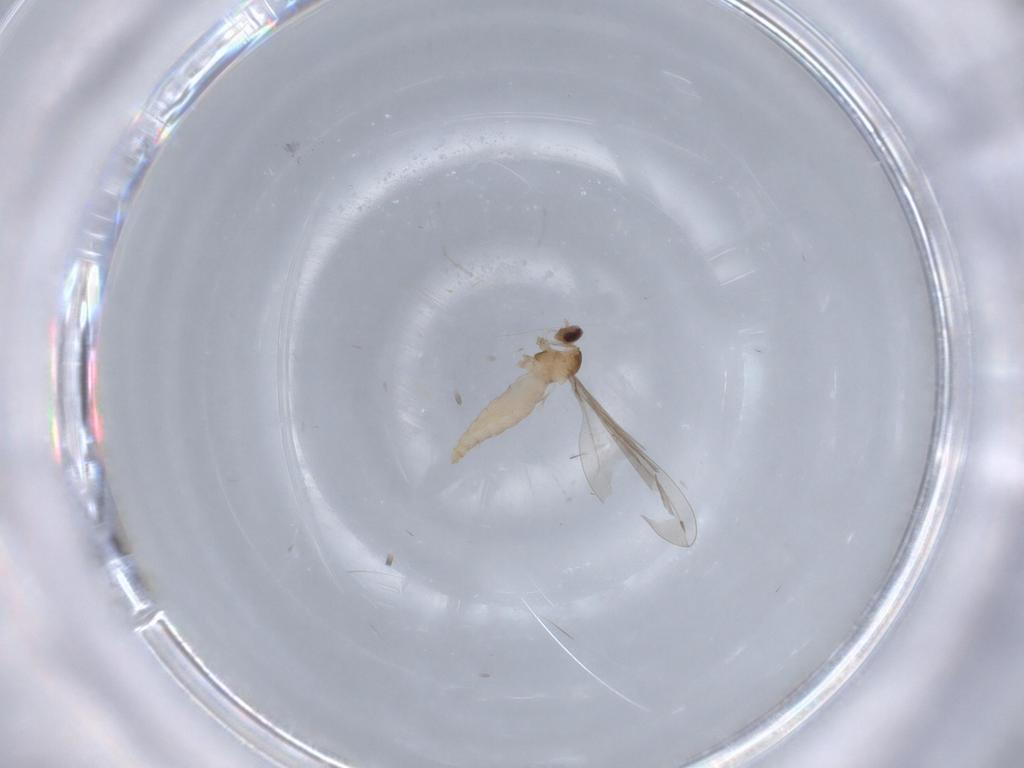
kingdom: Animalia
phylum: Arthropoda
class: Insecta
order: Diptera
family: Cecidomyiidae
